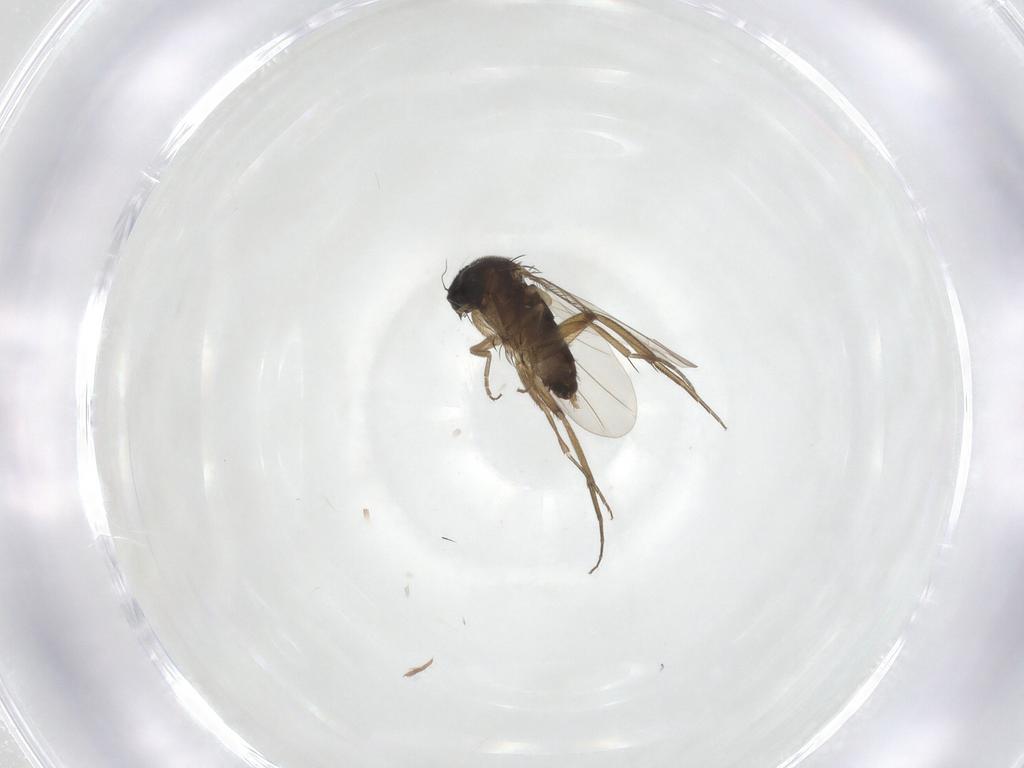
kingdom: Animalia
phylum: Arthropoda
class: Insecta
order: Diptera
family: Phoridae
